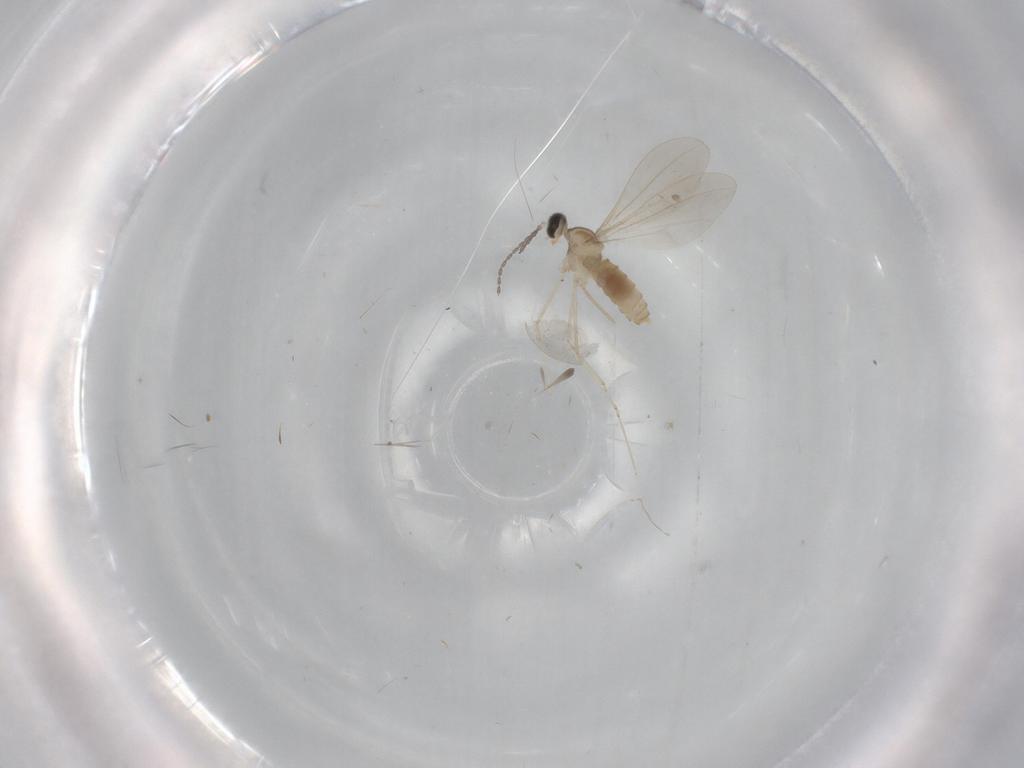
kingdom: Animalia
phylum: Arthropoda
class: Insecta
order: Diptera
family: Cecidomyiidae
